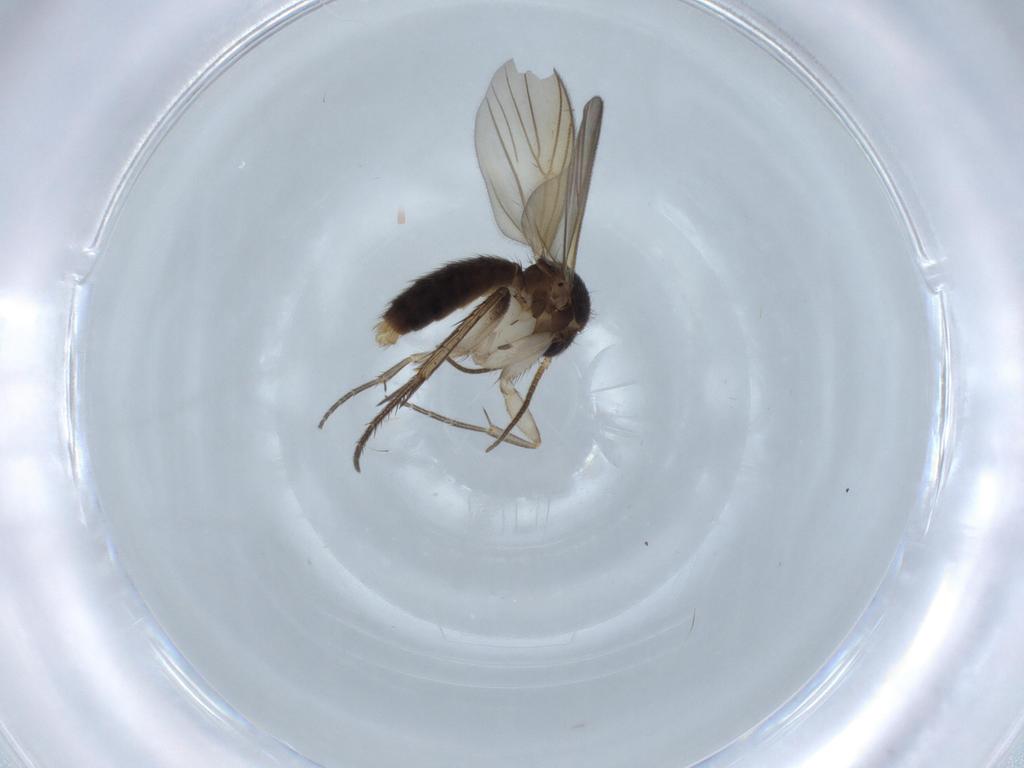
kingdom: Animalia
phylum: Arthropoda
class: Insecta
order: Diptera
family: Mycetophilidae
